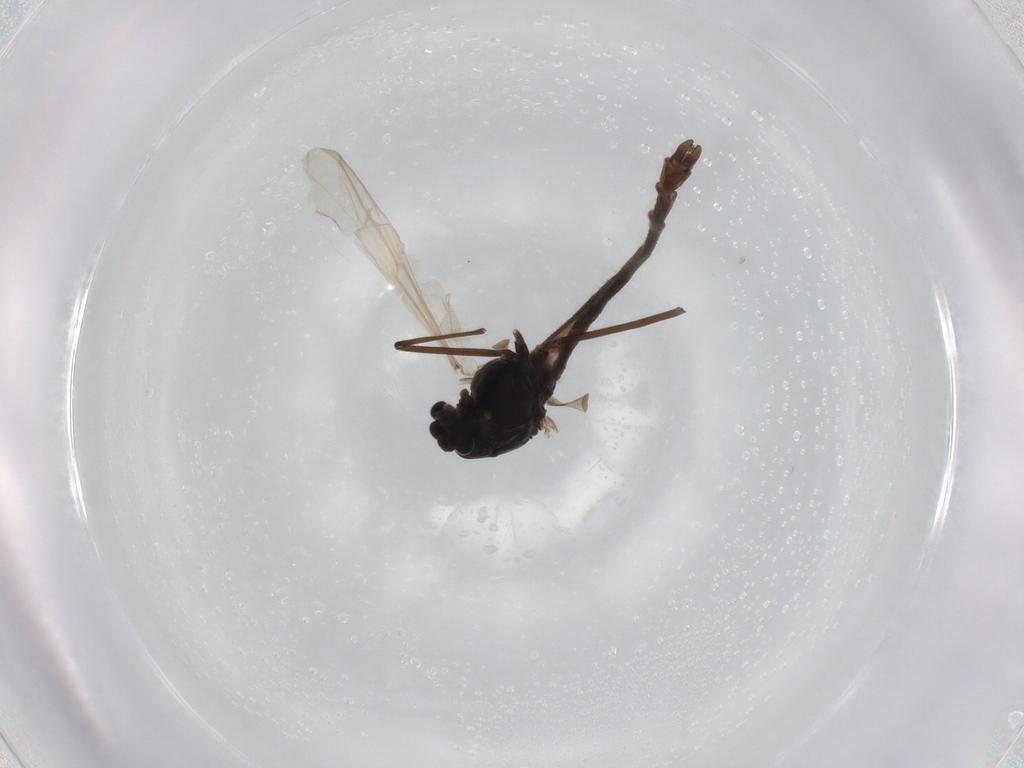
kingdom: Animalia
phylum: Arthropoda
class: Insecta
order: Diptera
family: Chironomidae
